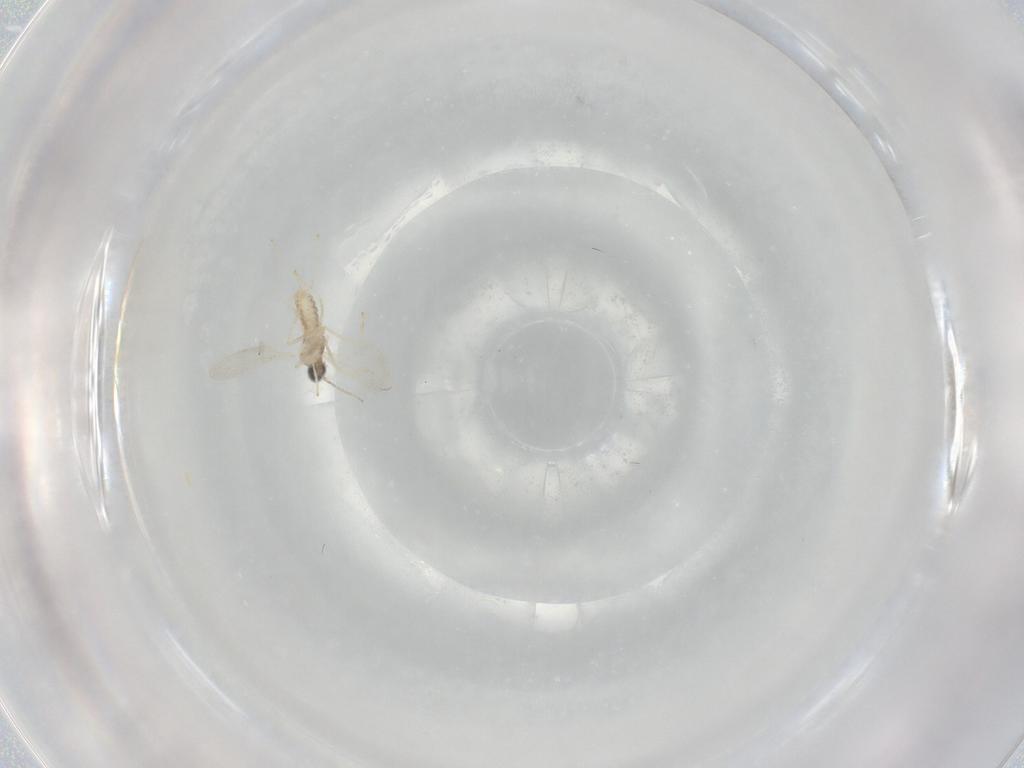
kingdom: Animalia
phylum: Arthropoda
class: Insecta
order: Diptera
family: Cecidomyiidae
